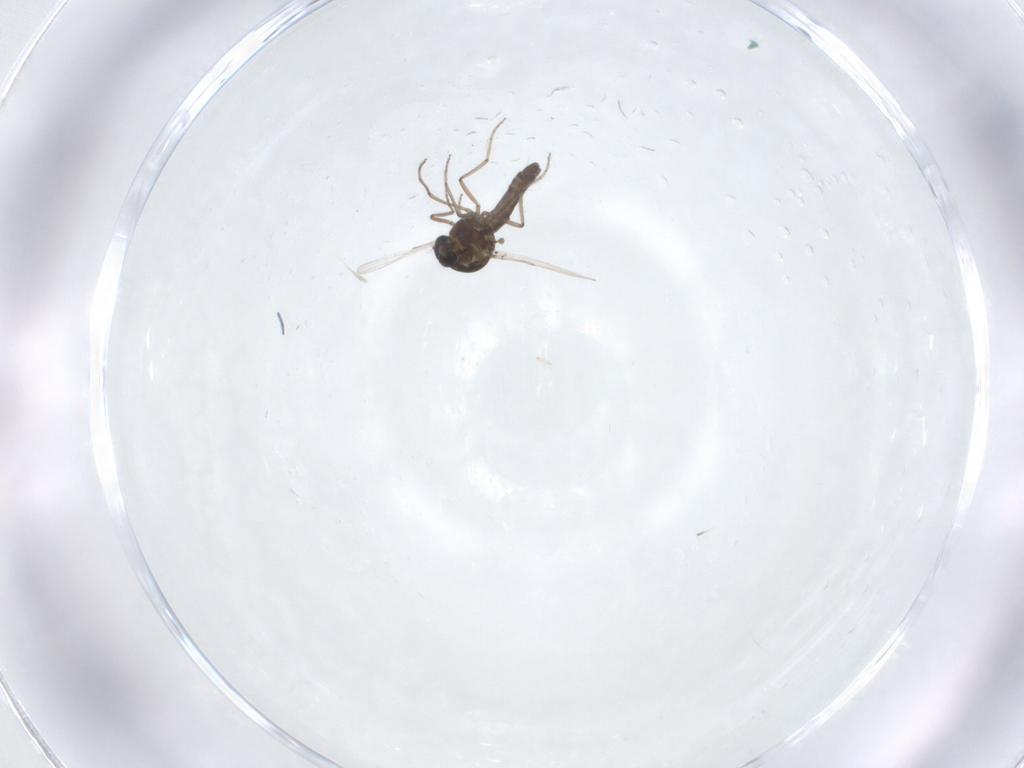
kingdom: Animalia
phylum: Arthropoda
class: Insecta
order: Diptera
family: Ceratopogonidae
